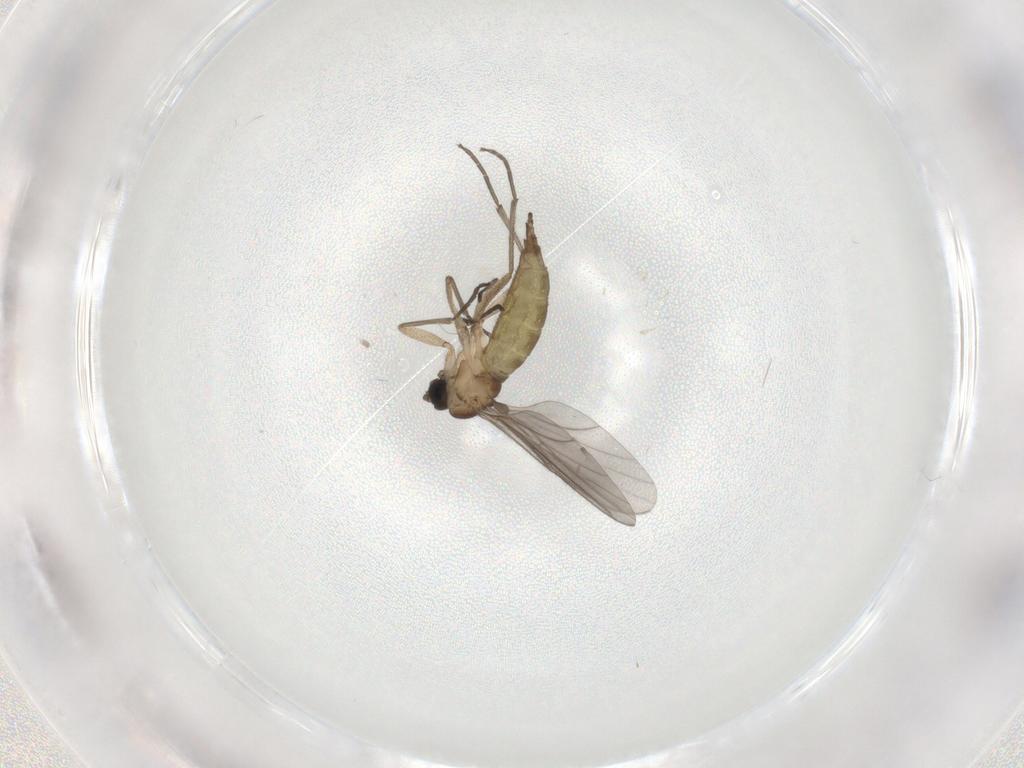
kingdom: Animalia
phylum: Arthropoda
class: Insecta
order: Diptera
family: Sciaridae
